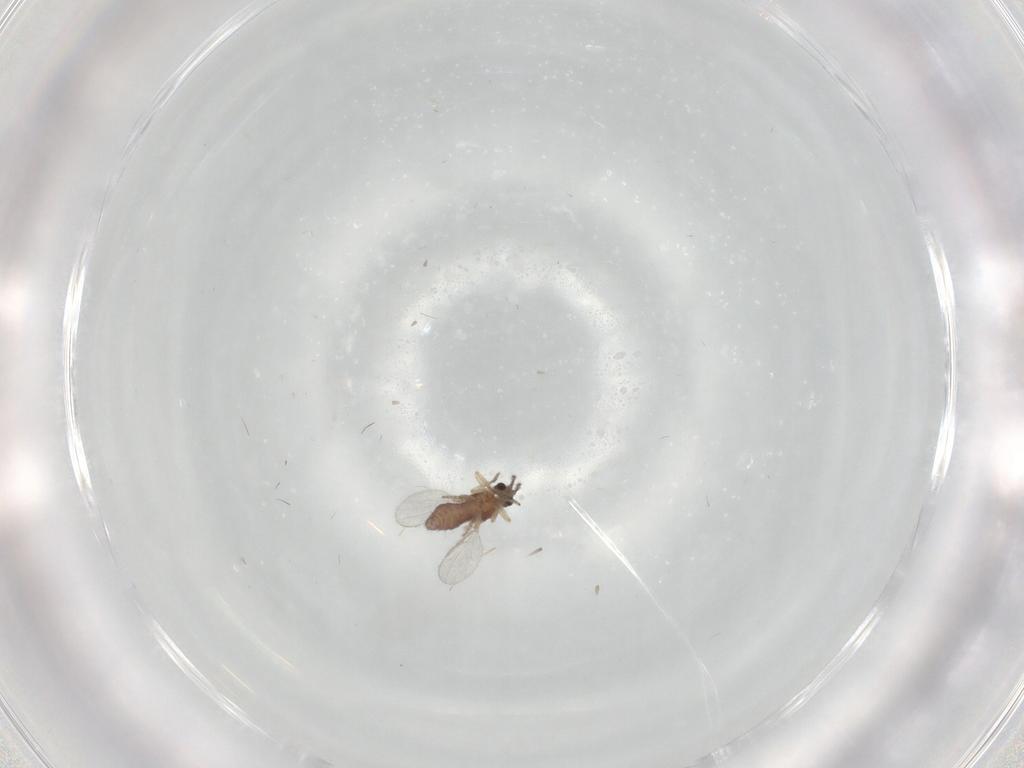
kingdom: Animalia
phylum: Arthropoda
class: Insecta
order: Diptera
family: Ceratopogonidae
